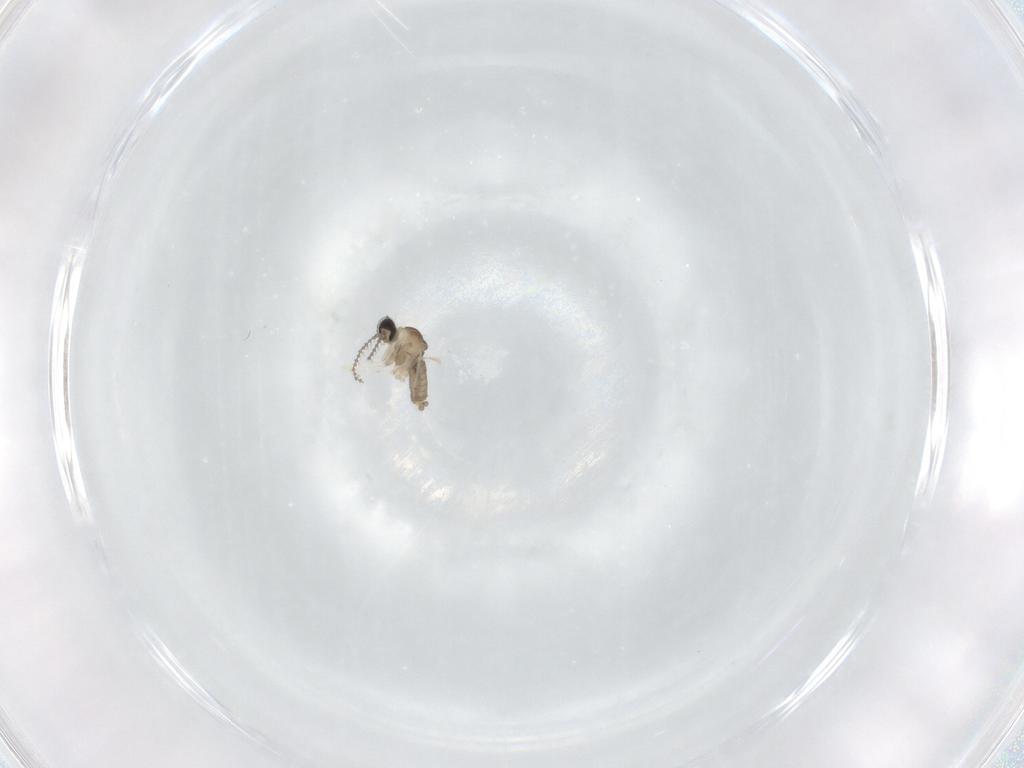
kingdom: Animalia
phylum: Arthropoda
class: Insecta
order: Diptera
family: Cecidomyiidae
